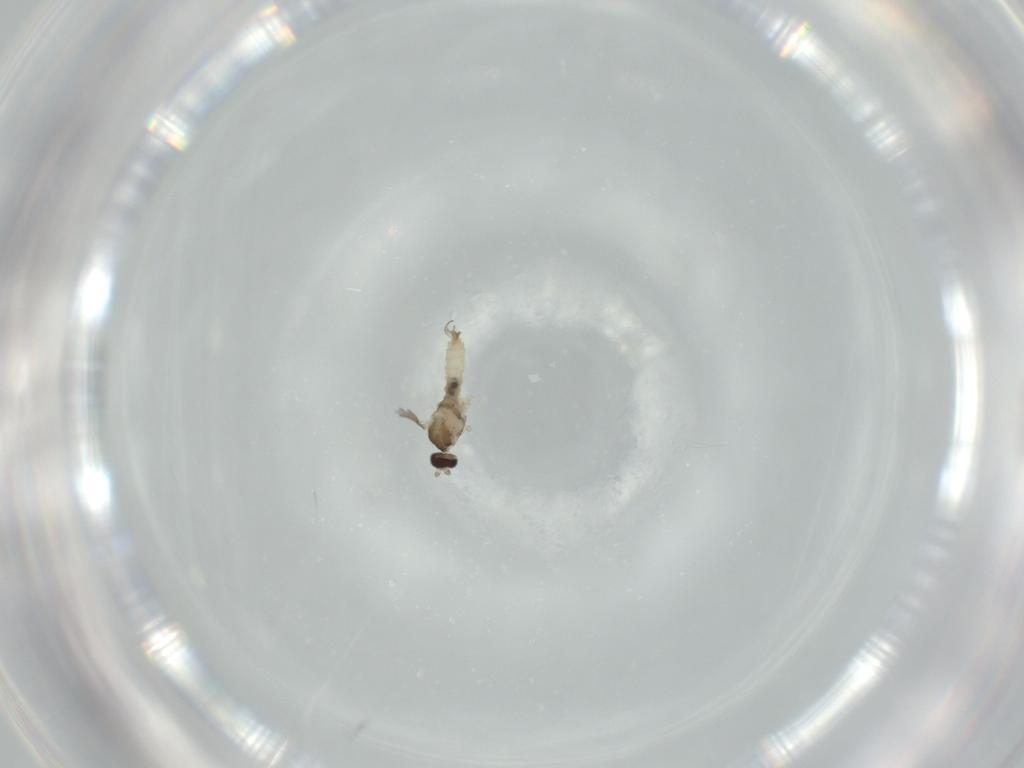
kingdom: Animalia
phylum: Arthropoda
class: Insecta
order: Diptera
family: Cecidomyiidae
